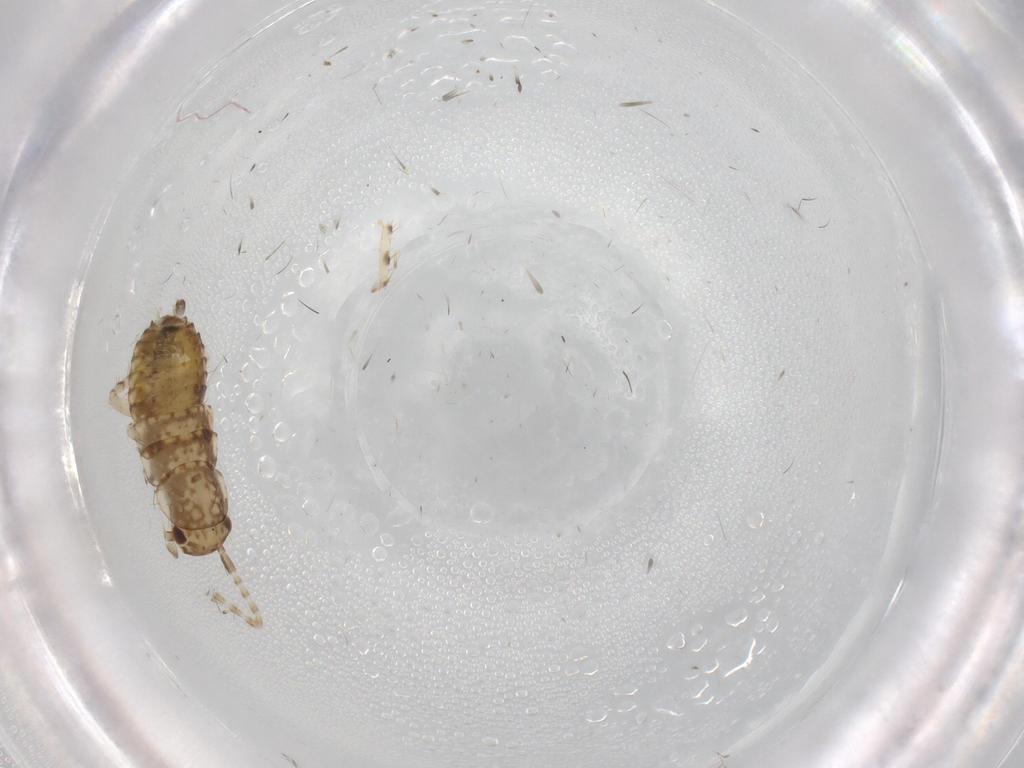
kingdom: Animalia
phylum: Arthropoda
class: Insecta
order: Blattodea
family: Ectobiidae
